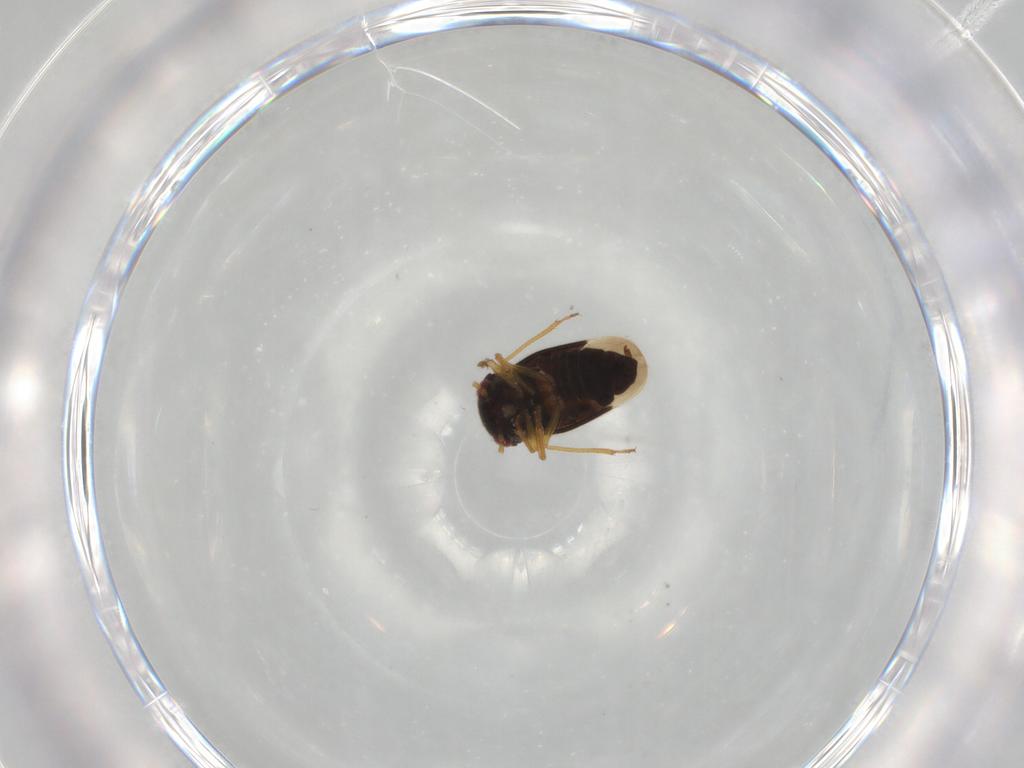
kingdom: Animalia
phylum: Arthropoda
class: Insecta
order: Hemiptera
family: Schizopteridae
